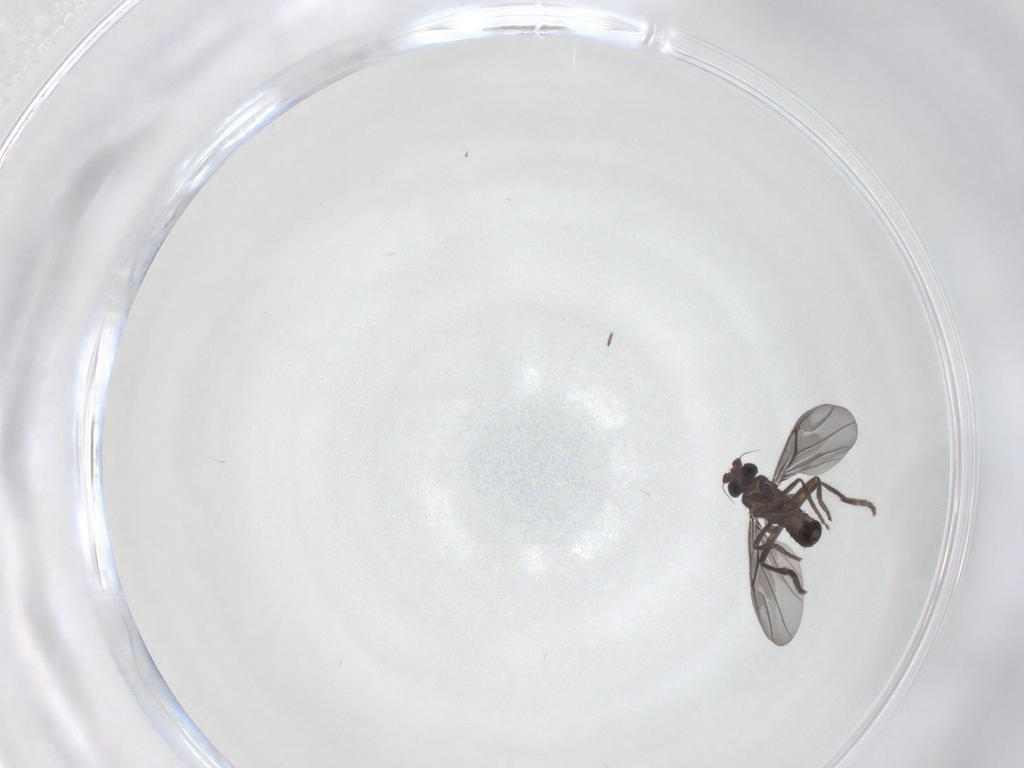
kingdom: Animalia
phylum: Arthropoda
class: Insecta
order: Diptera
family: Phoridae
